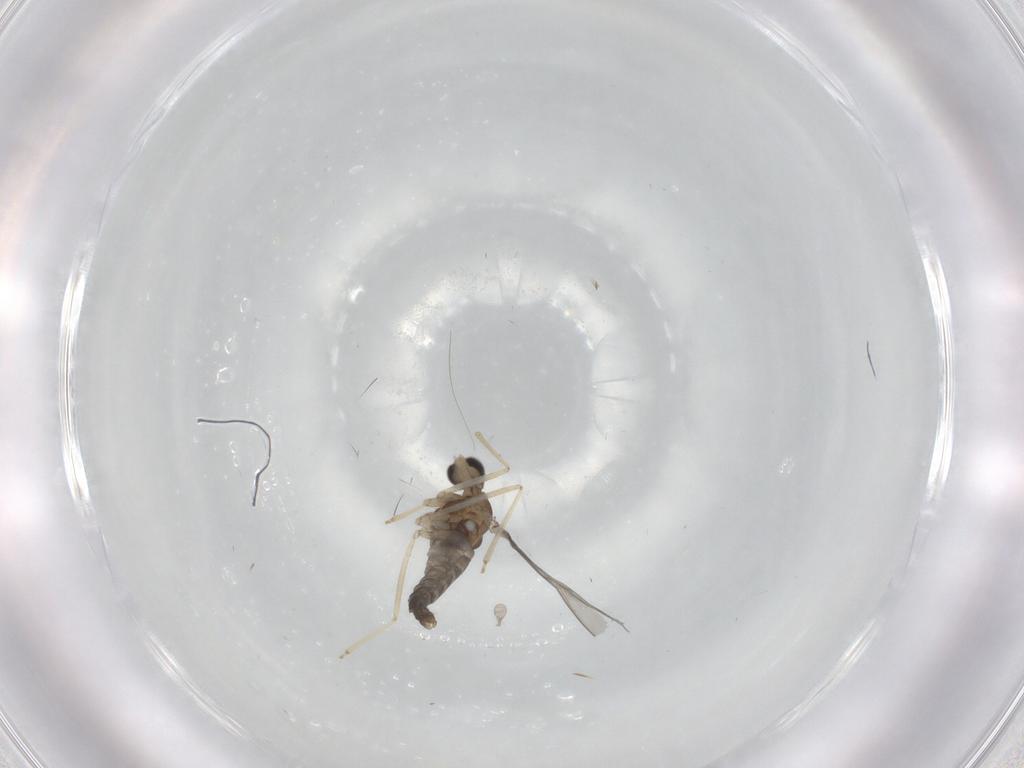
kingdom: Animalia
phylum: Arthropoda
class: Insecta
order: Diptera
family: Cecidomyiidae
